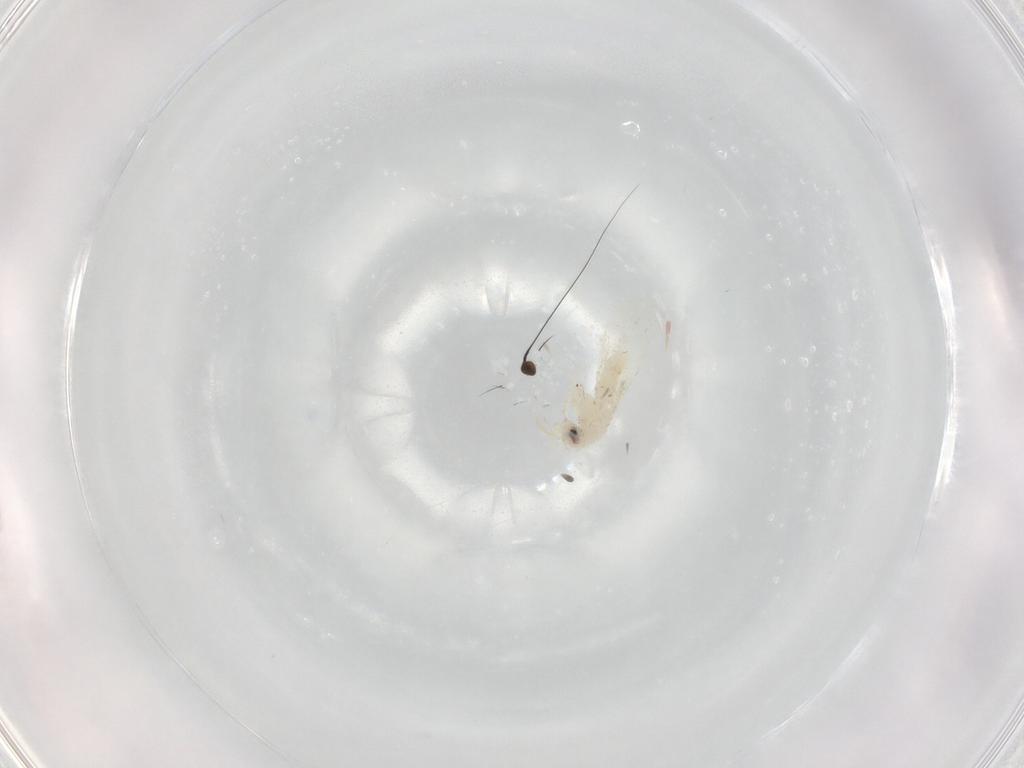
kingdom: Animalia
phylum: Arthropoda
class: Insecta
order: Hemiptera
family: Aleyrodidae
